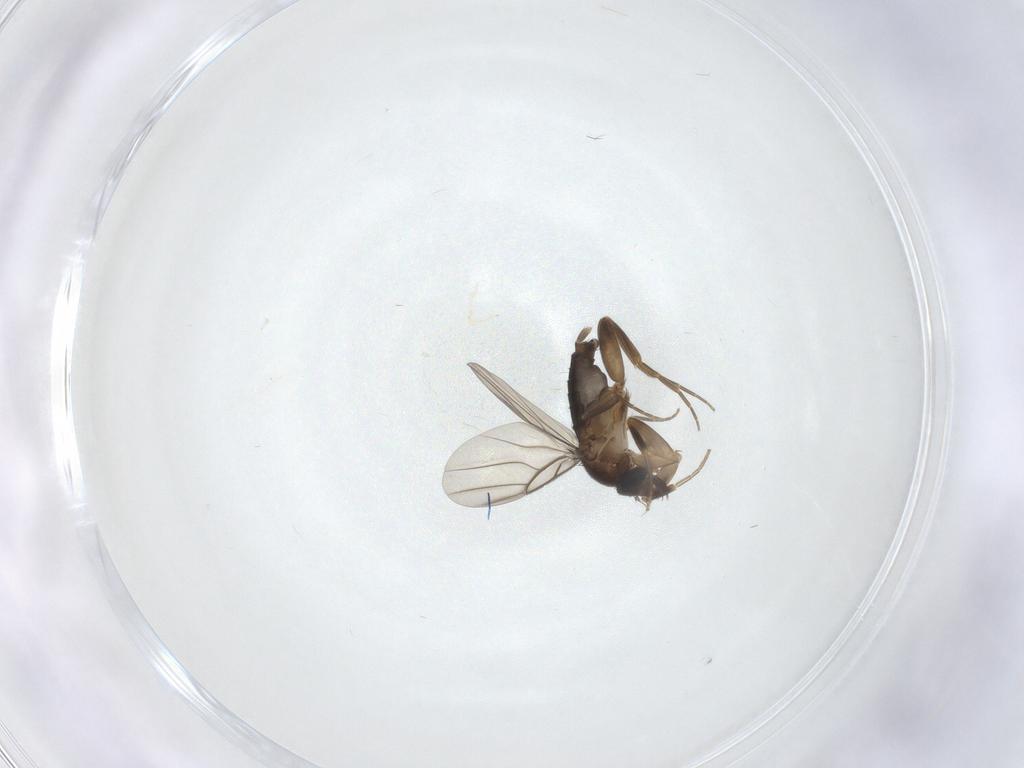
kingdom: Animalia
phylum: Arthropoda
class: Insecta
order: Diptera
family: Phoridae
